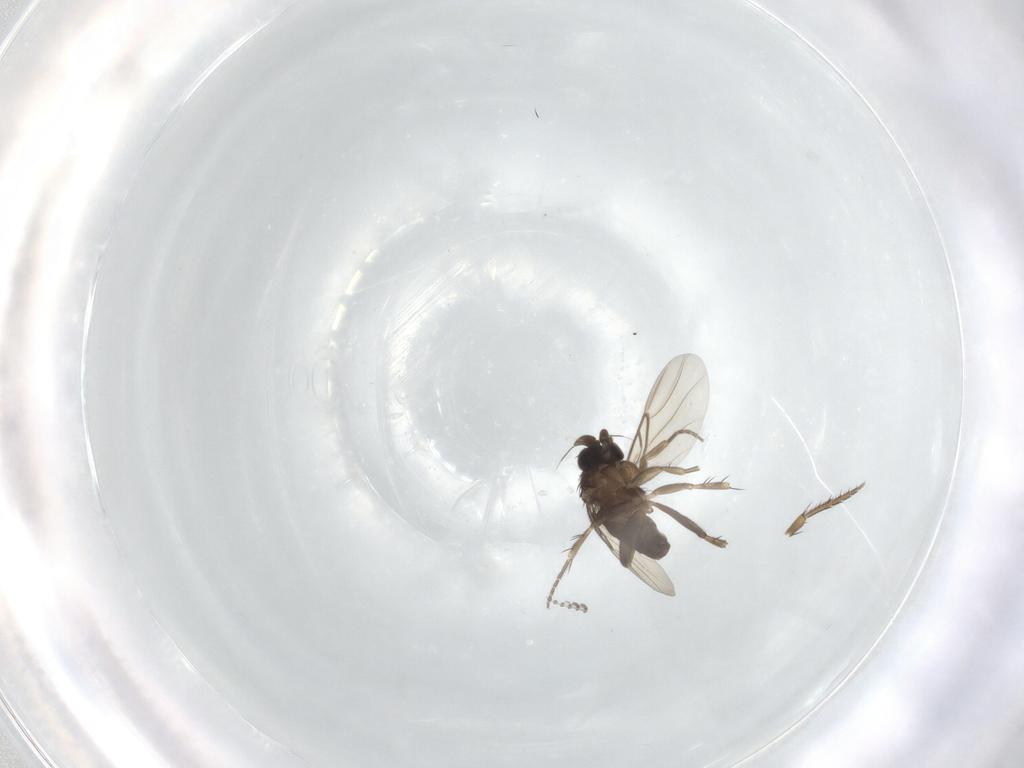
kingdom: Animalia
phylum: Arthropoda
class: Insecta
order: Diptera
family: Phoridae
